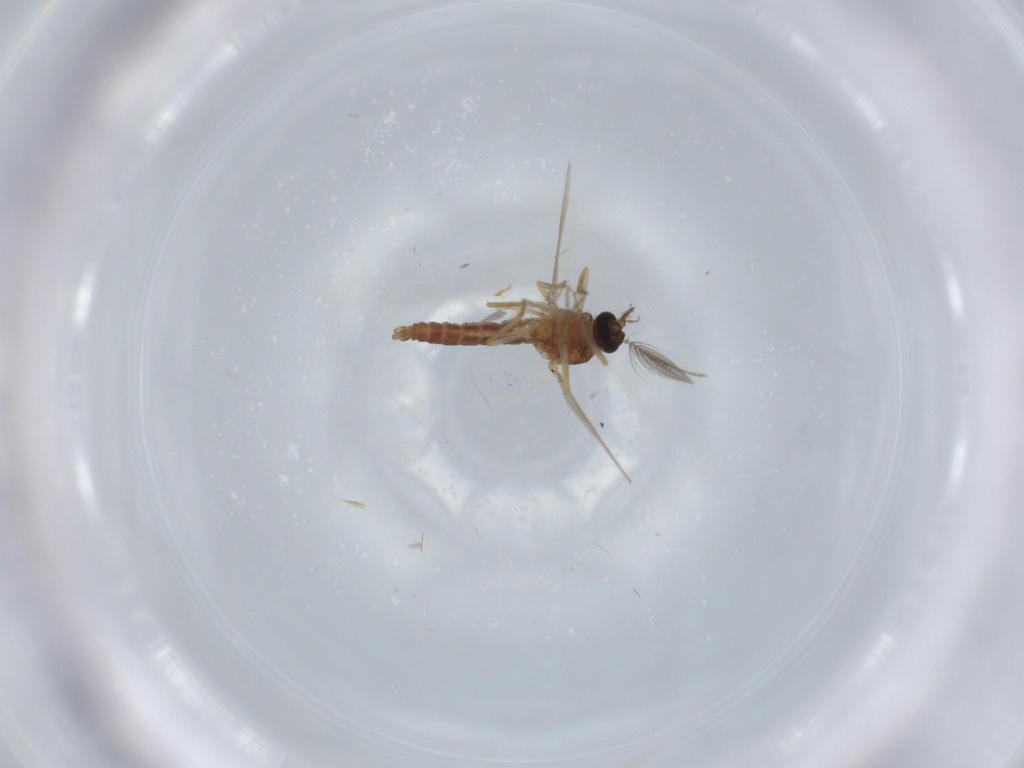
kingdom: Animalia
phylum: Arthropoda
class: Insecta
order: Diptera
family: Ceratopogonidae
